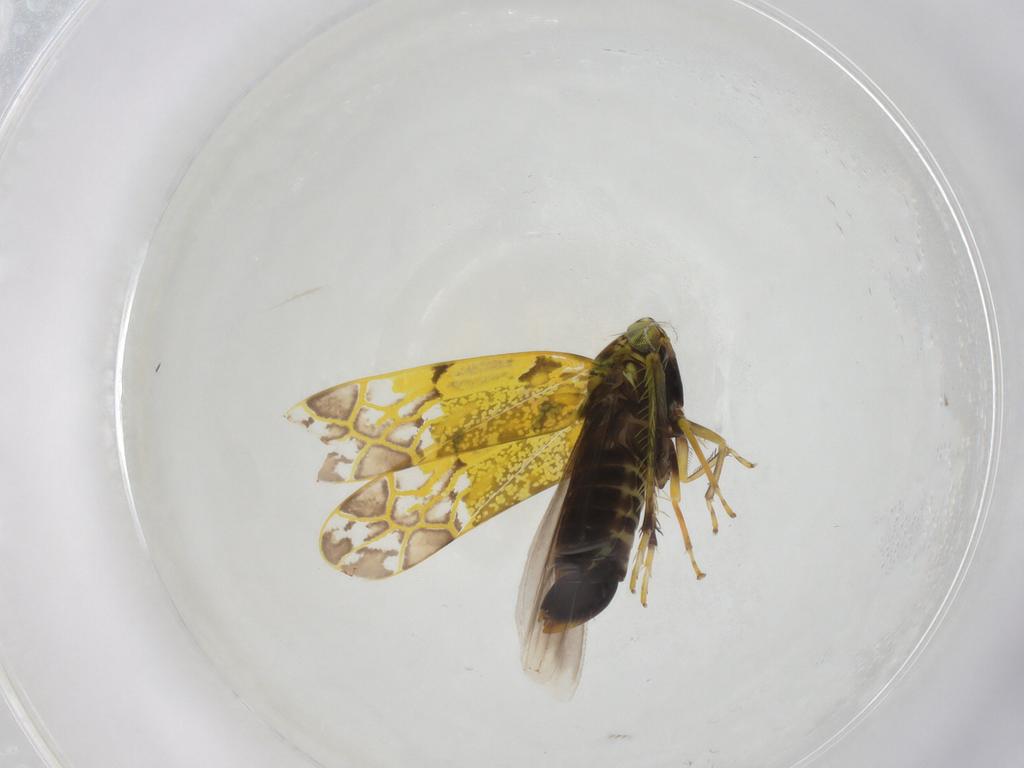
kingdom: Animalia
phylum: Arthropoda
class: Insecta
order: Hemiptera
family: Cicadellidae
